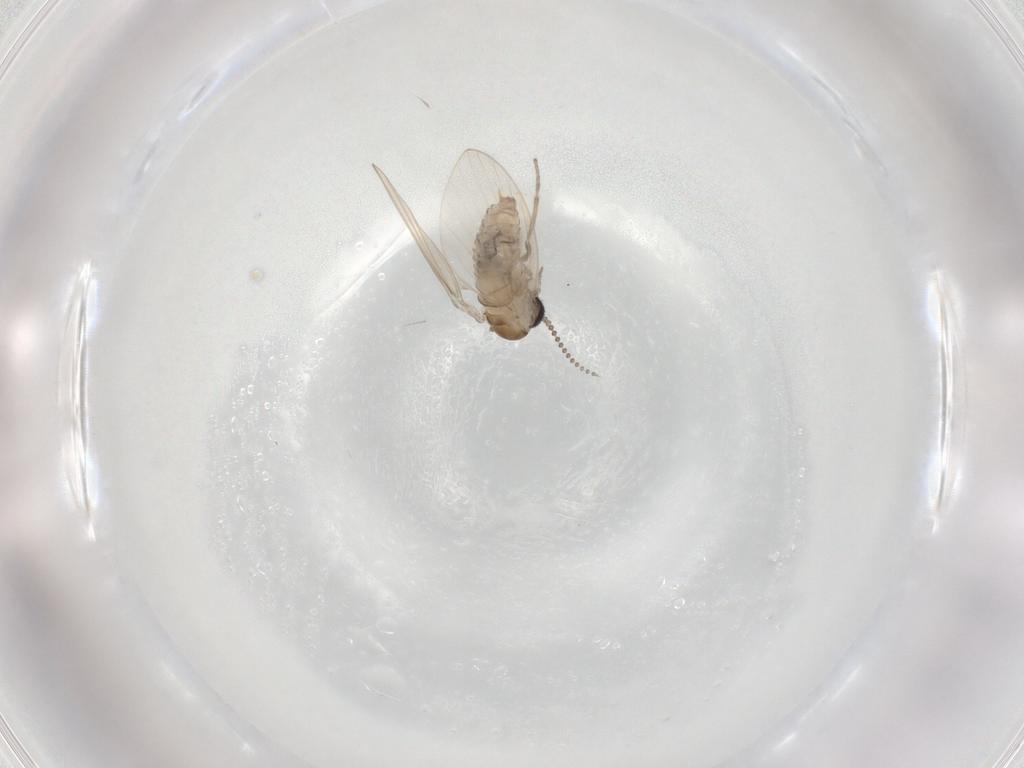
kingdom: Animalia
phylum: Arthropoda
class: Insecta
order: Diptera
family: Psychodidae
